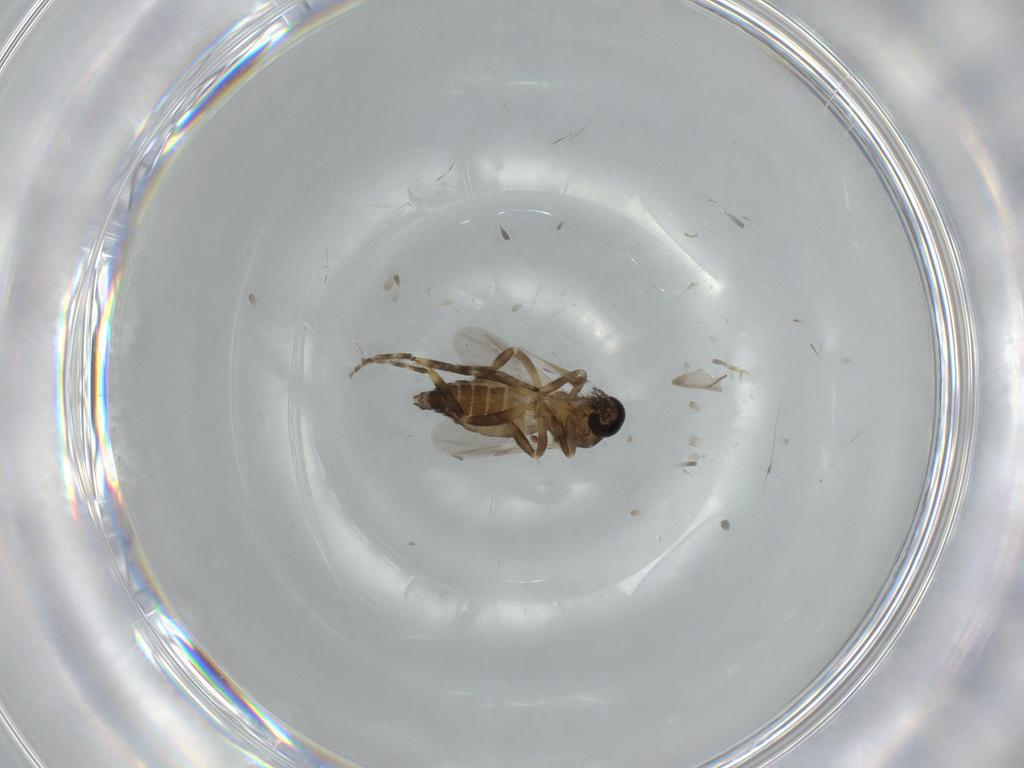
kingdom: Animalia
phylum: Arthropoda
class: Insecta
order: Diptera
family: Ceratopogonidae
